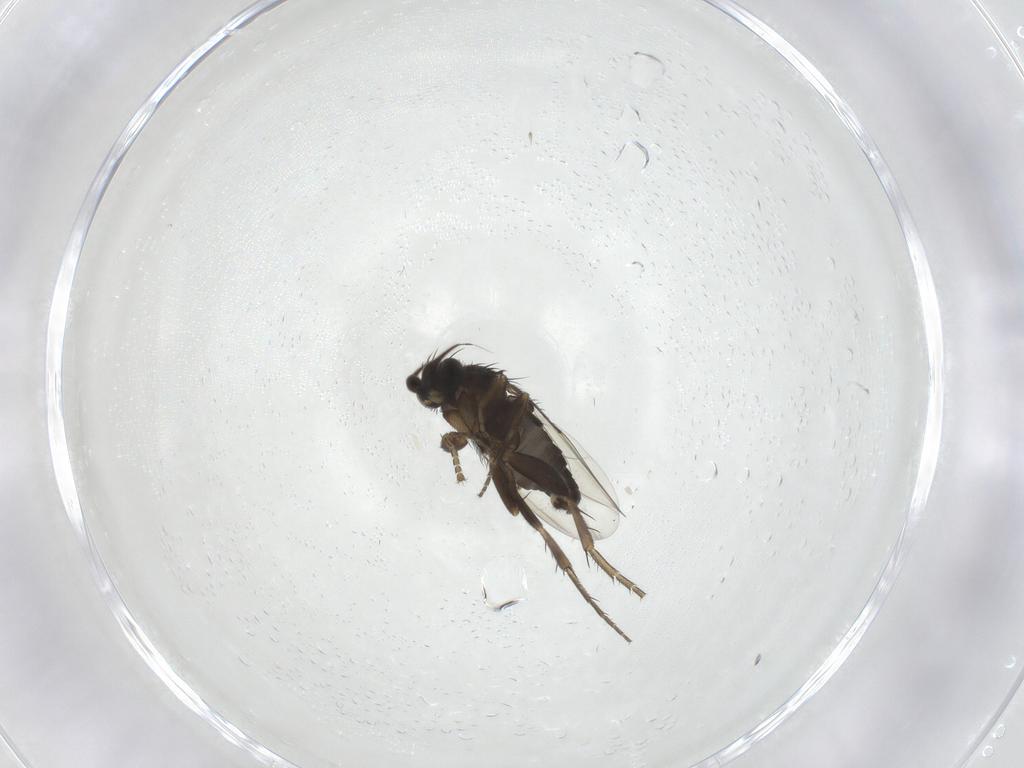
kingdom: Animalia
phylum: Arthropoda
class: Insecta
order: Diptera
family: Phoridae
